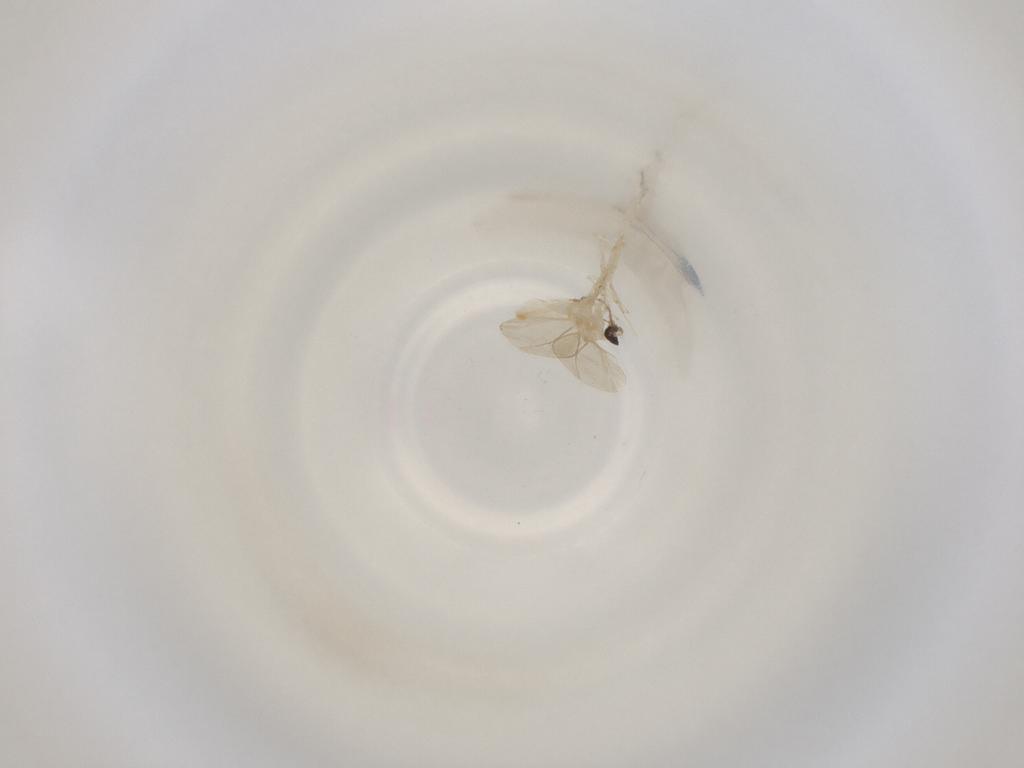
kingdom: Animalia
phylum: Arthropoda
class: Insecta
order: Diptera
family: Cecidomyiidae
